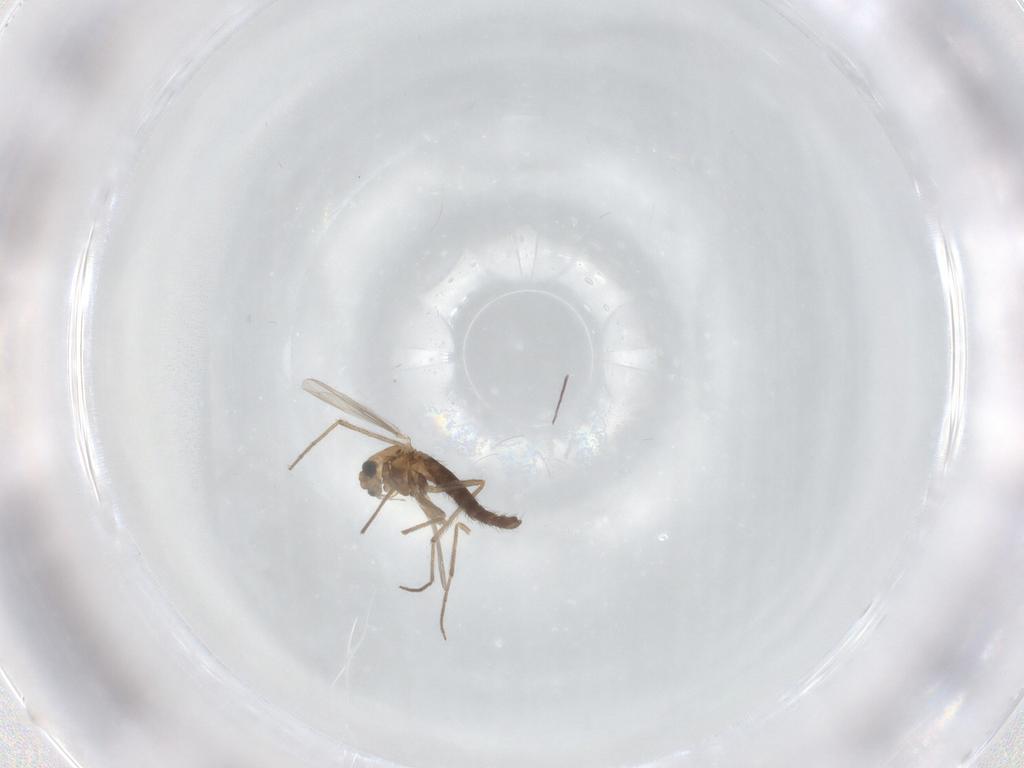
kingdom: Animalia
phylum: Arthropoda
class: Insecta
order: Diptera
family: Chironomidae
